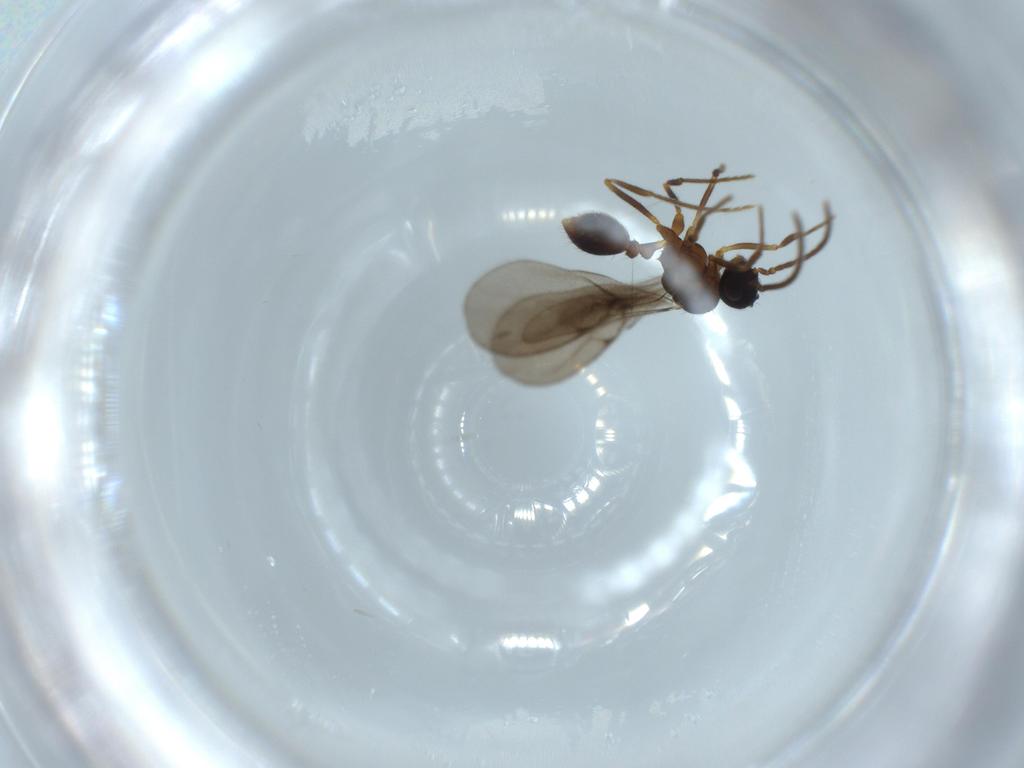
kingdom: Animalia
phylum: Arthropoda
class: Insecta
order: Hymenoptera
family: Formicidae
